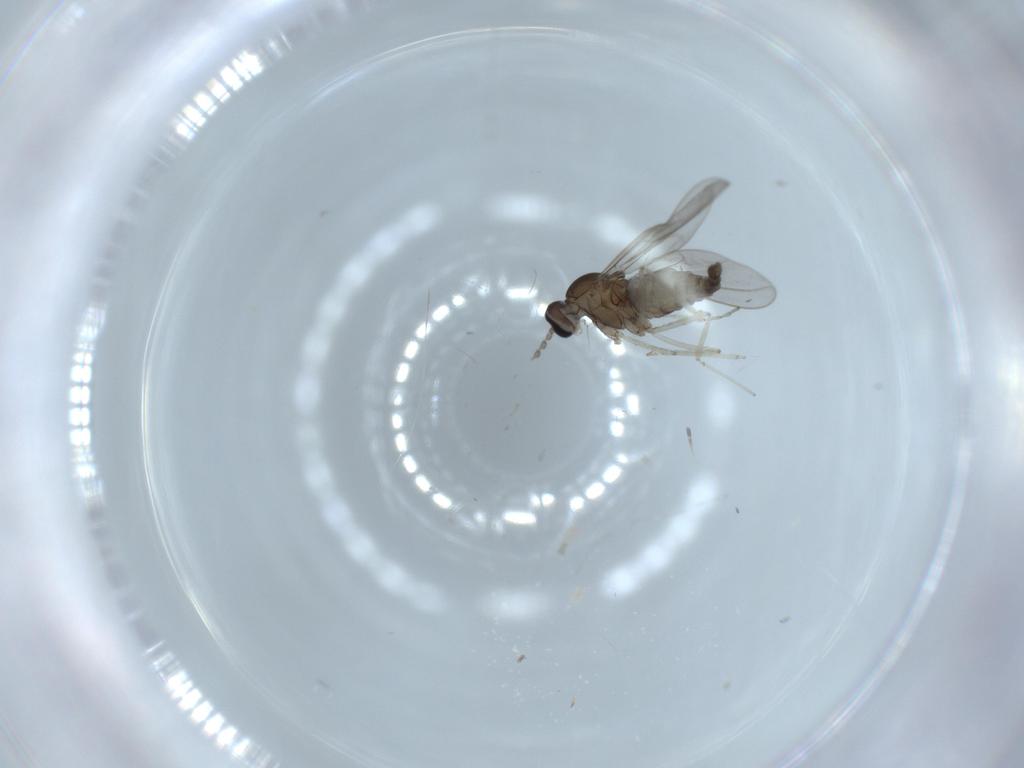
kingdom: Animalia
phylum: Arthropoda
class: Insecta
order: Diptera
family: Cecidomyiidae
